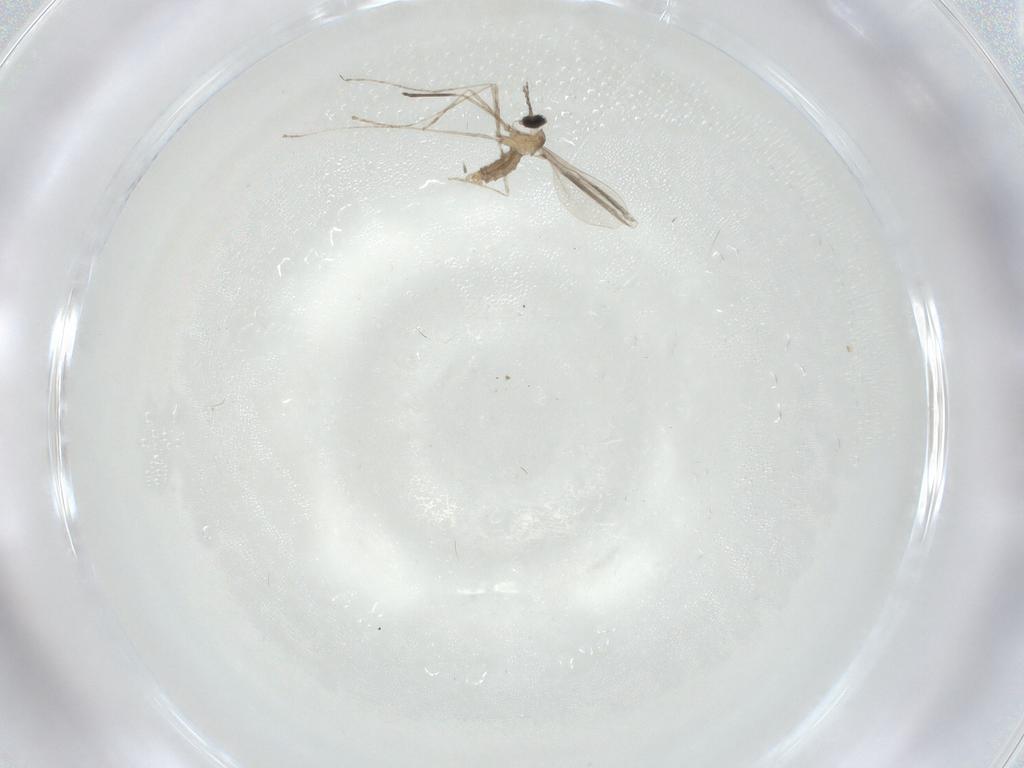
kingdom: Animalia
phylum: Arthropoda
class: Insecta
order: Diptera
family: Cecidomyiidae
